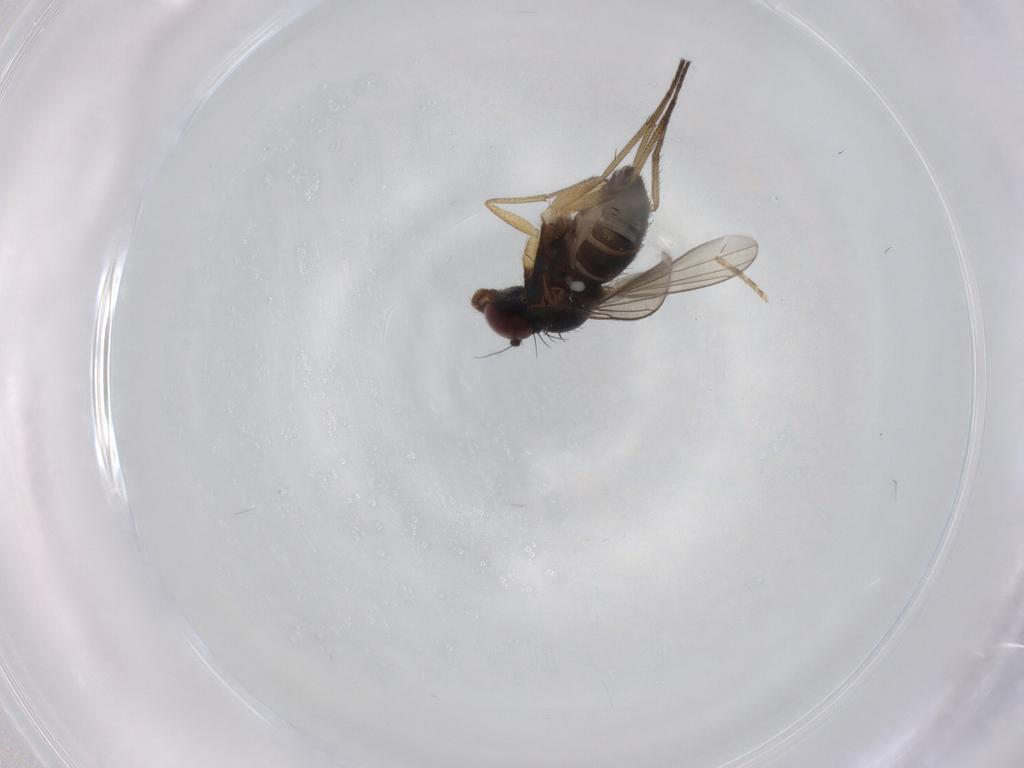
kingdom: Animalia
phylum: Arthropoda
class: Insecta
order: Diptera
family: Dolichopodidae
